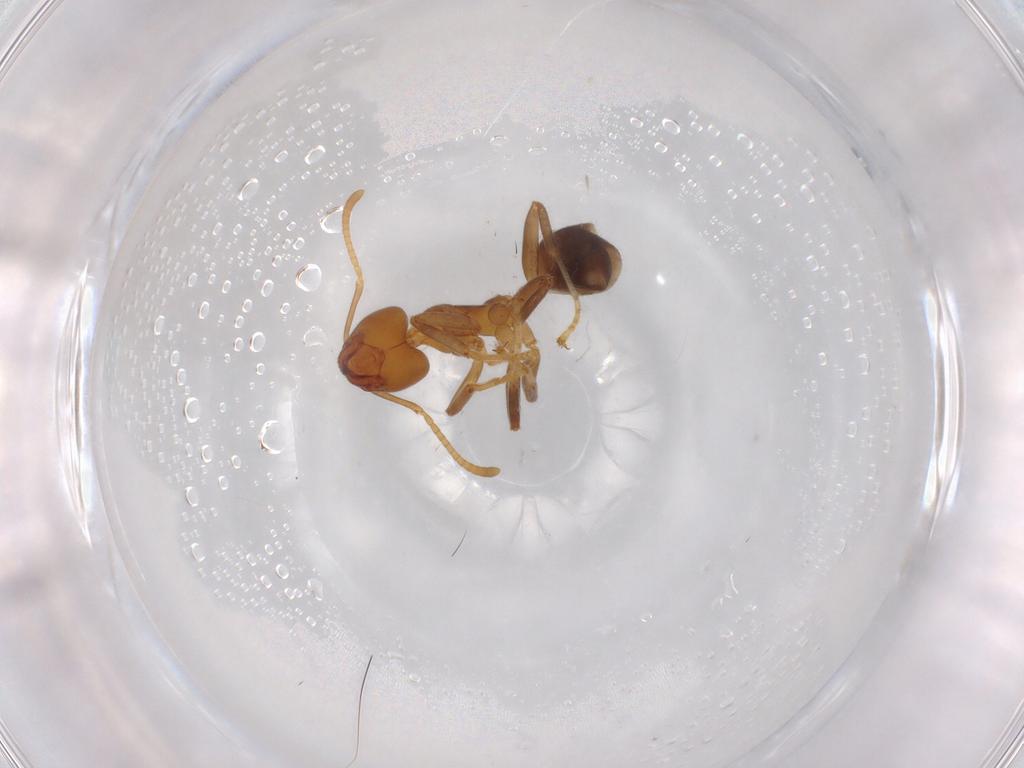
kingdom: Animalia
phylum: Arthropoda
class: Insecta
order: Hymenoptera
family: Formicidae
